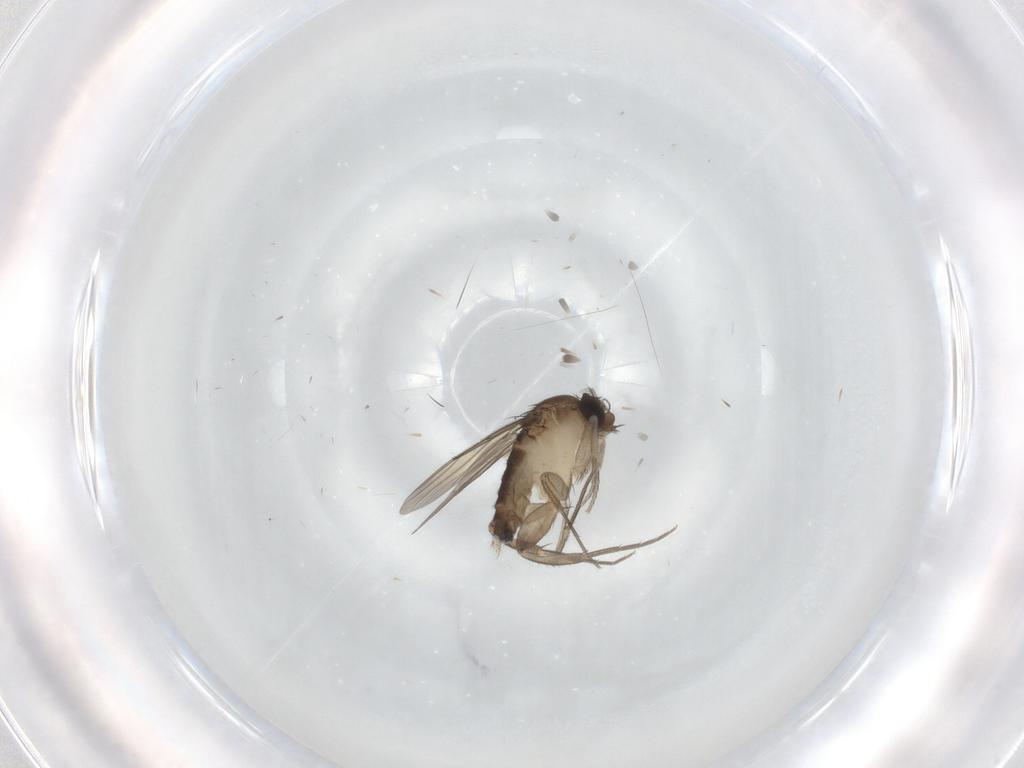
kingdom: Animalia
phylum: Arthropoda
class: Insecta
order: Diptera
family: Phoridae
